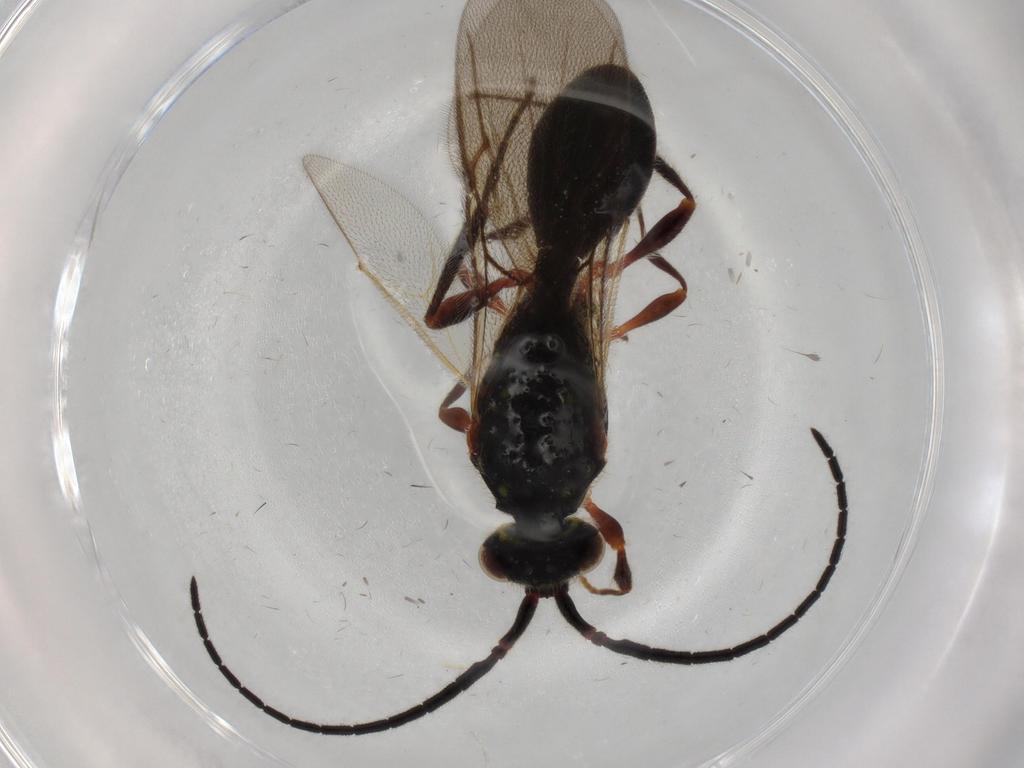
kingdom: Animalia
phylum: Arthropoda
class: Insecta
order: Hymenoptera
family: Diapriidae
